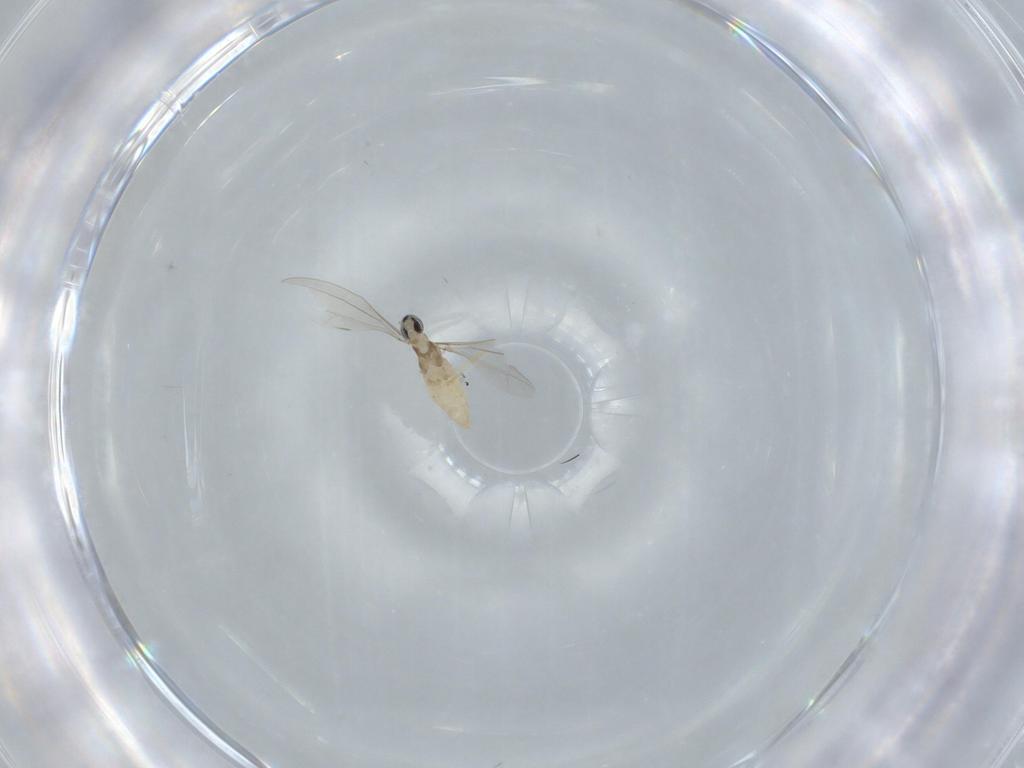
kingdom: Animalia
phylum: Arthropoda
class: Insecta
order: Diptera
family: Cecidomyiidae
